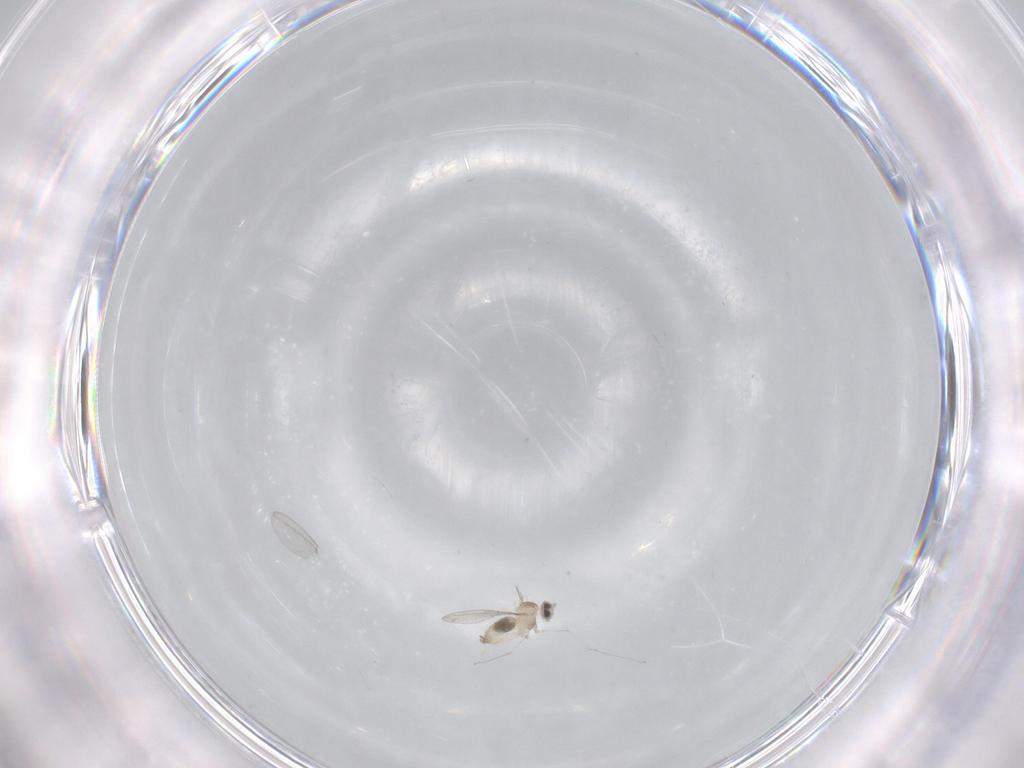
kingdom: Animalia
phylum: Arthropoda
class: Insecta
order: Diptera
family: Cecidomyiidae
